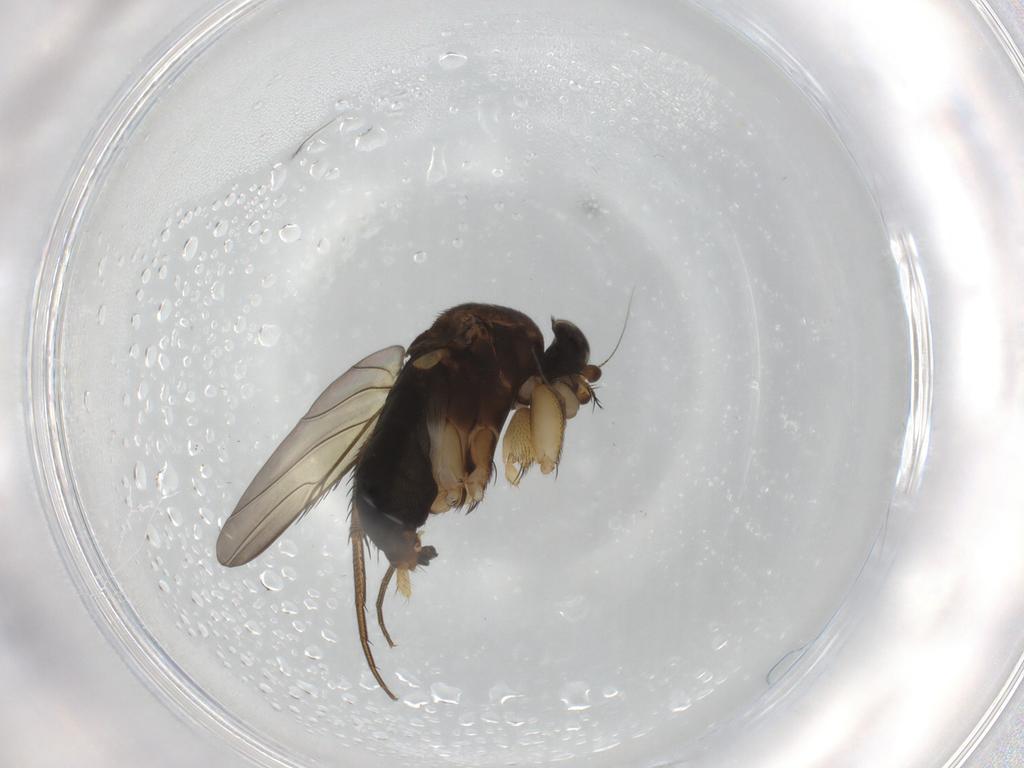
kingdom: Animalia
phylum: Arthropoda
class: Insecta
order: Diptera
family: Phoridae
